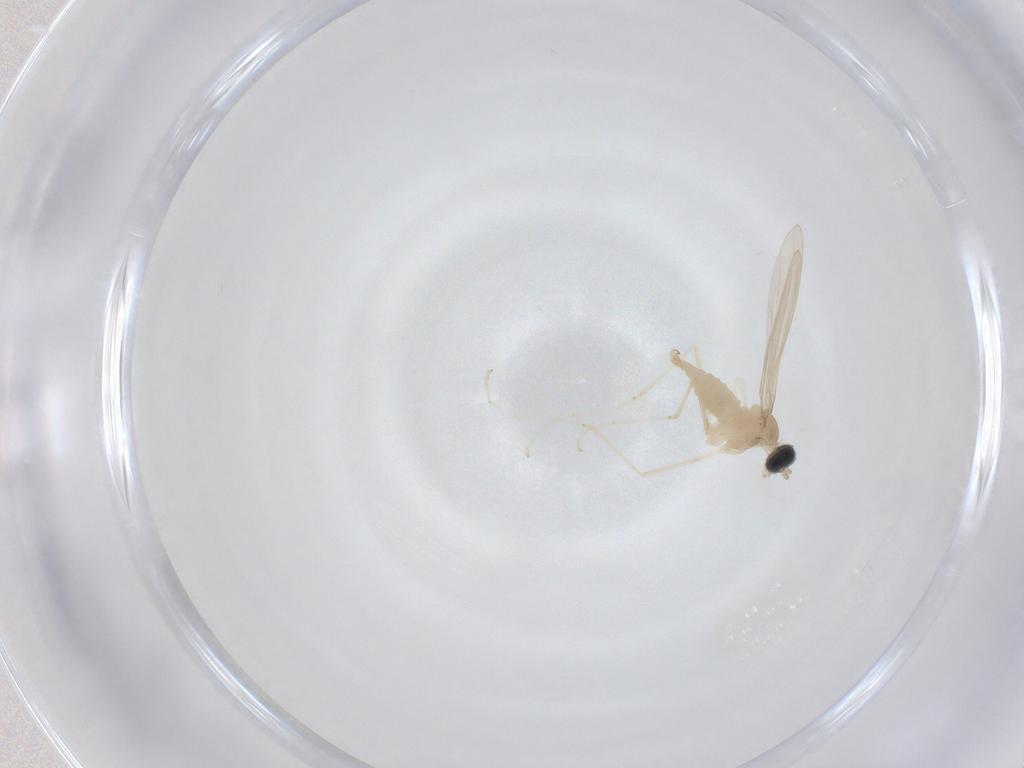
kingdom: Animalia
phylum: Arthropoda
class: Insecta
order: Diptera
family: Cecidomyiidae
